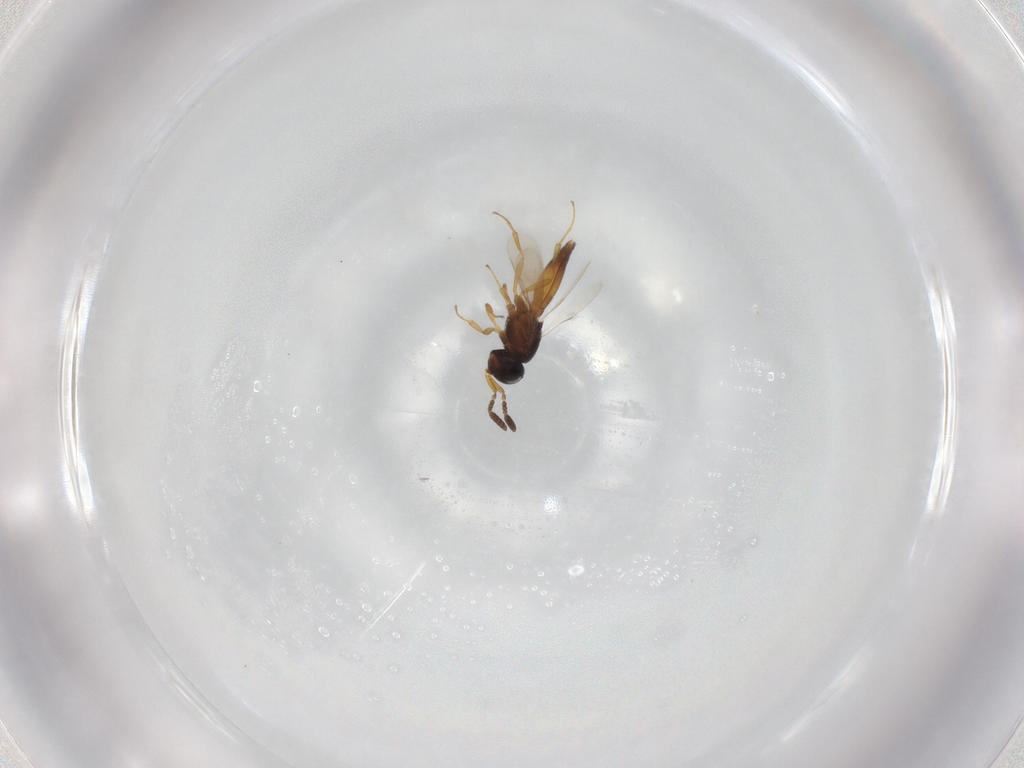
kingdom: Animalia
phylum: Arthropoda
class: Insecta
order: Hymenoptera
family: Scelionidae
